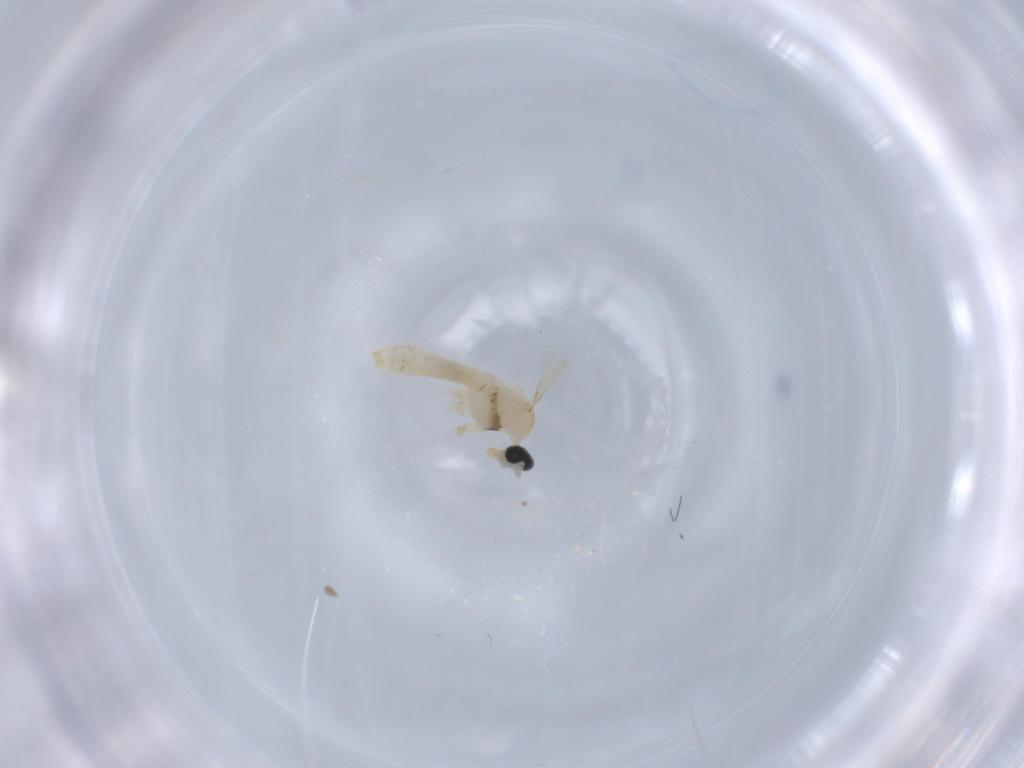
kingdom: Animalia
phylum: Arthropoda
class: Insecta
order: Diptera
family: Cecidomyiidae
